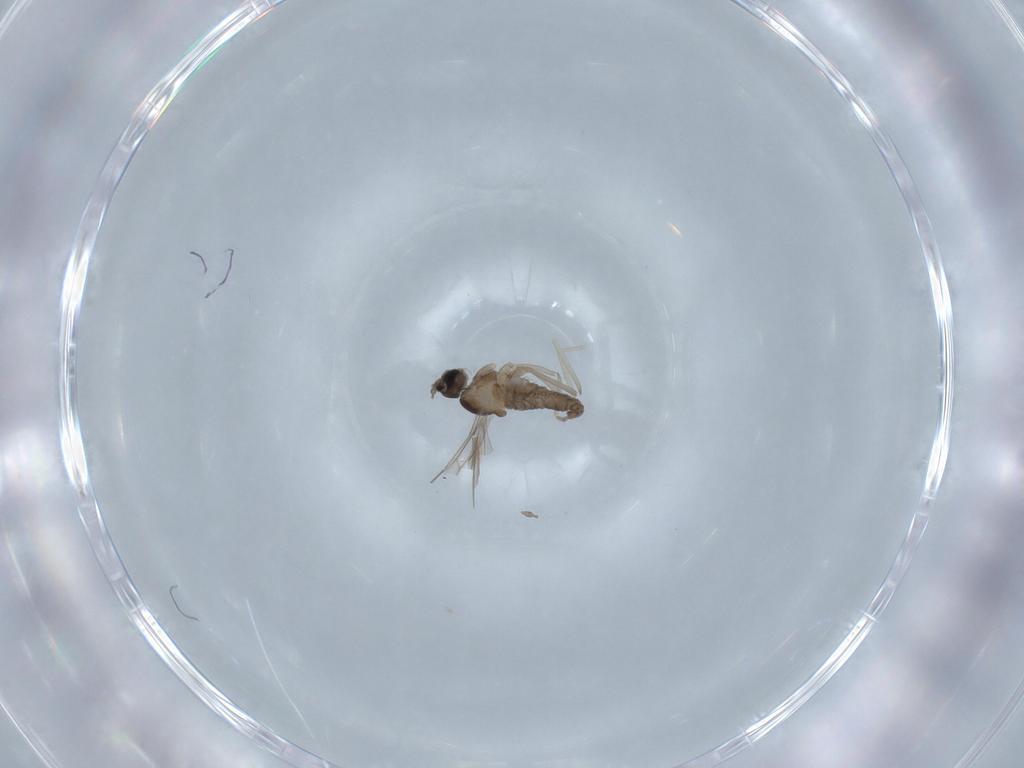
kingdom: Animalia
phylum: Arthropoda
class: Insecta
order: Diptera
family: Cecidomyiidae
